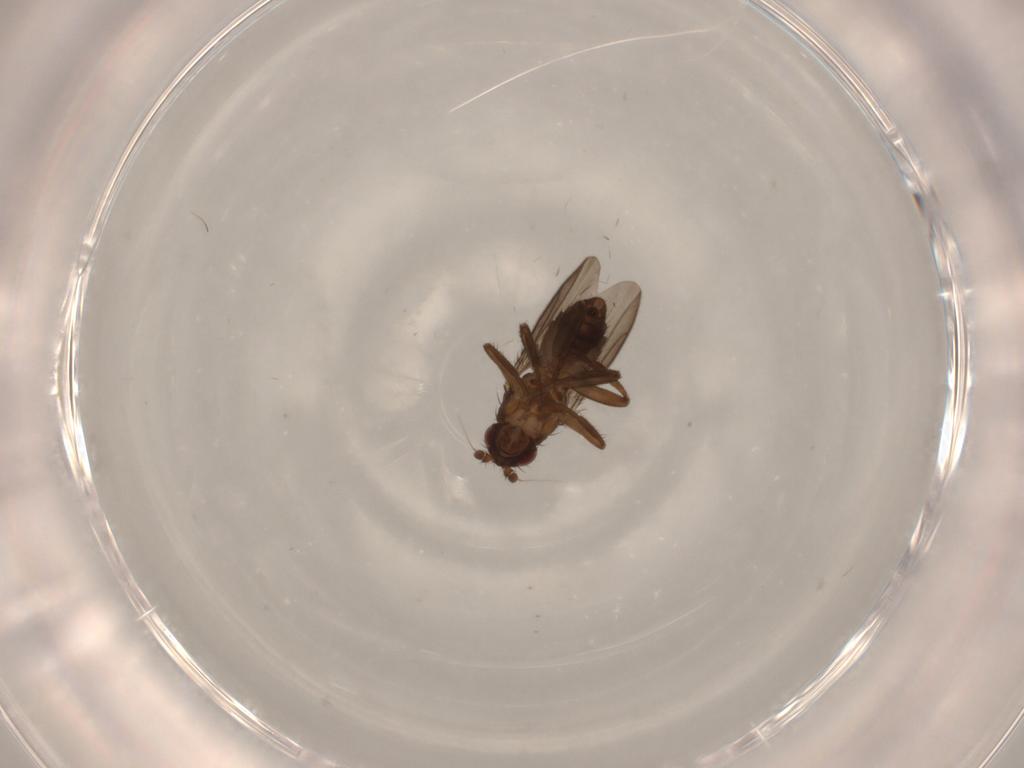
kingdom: Animalia
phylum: Arthropoda
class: Insecta
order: Diptera
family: Sphaeroceridae
